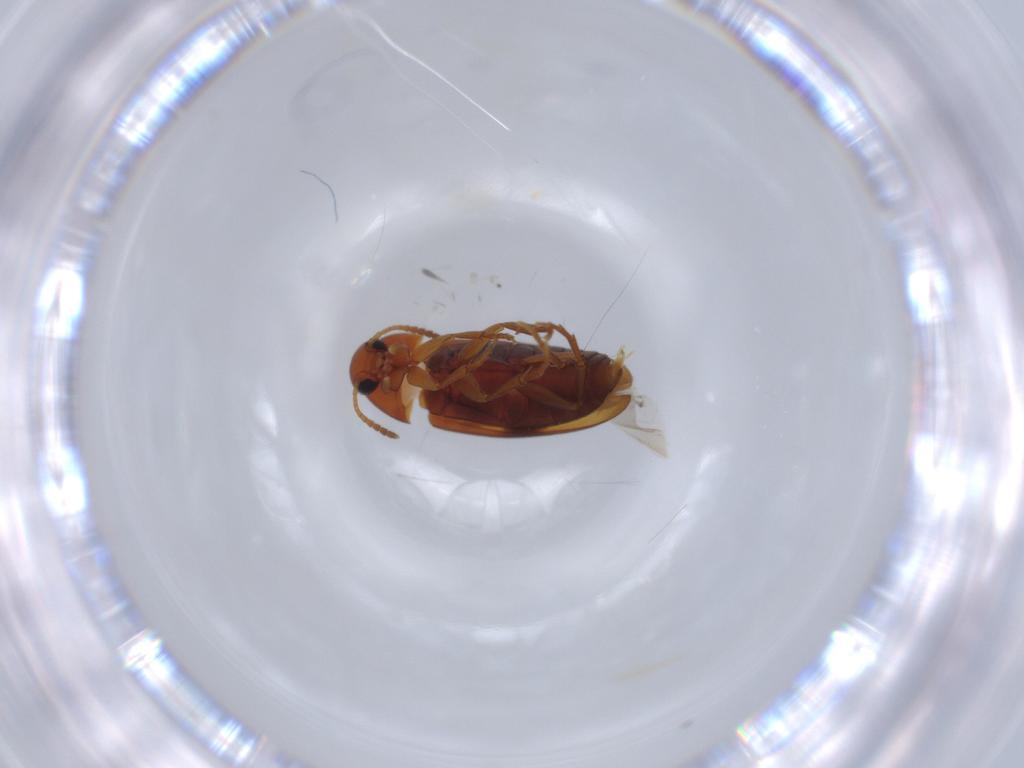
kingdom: Animalia
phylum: Arthropoda
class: Insecta
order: Coleoptera
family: Scraptiidae
